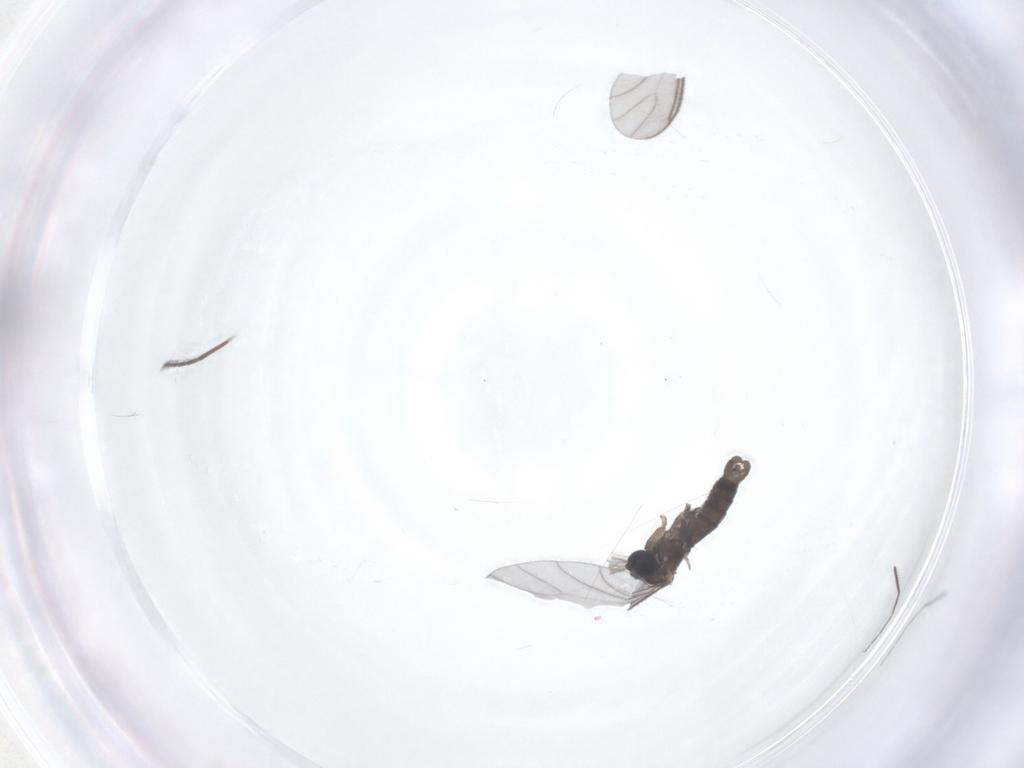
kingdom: Animalia
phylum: Arthropoda
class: Insecta
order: Diptera
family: Sciaridae
